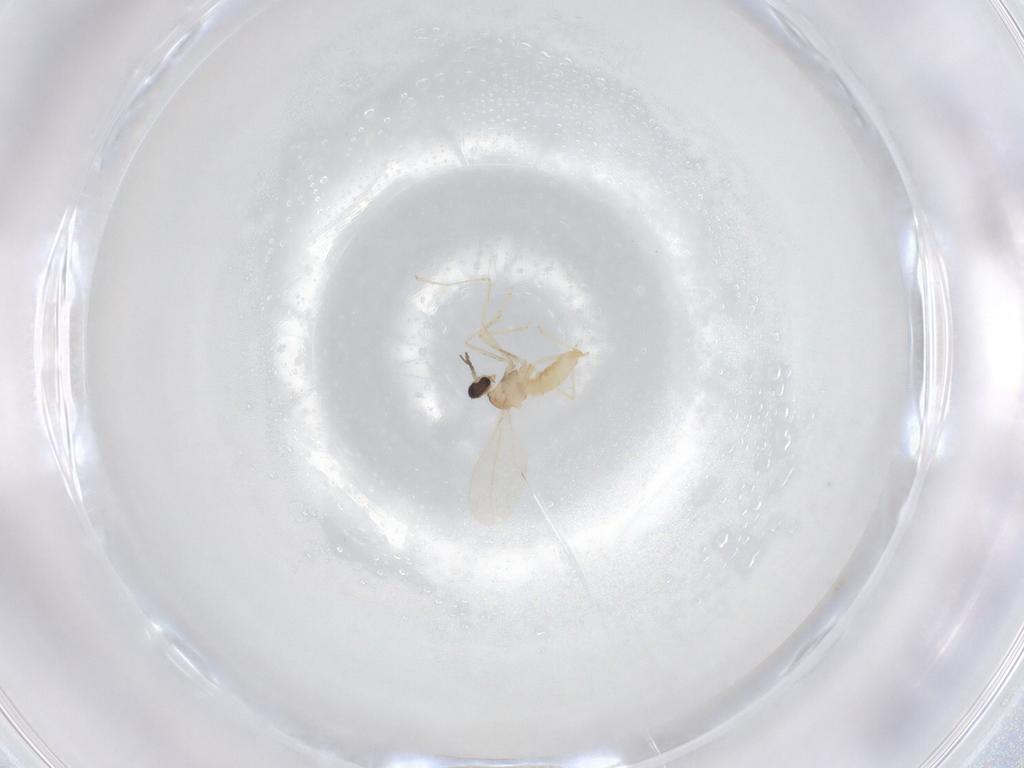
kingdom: Animalia
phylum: Arthropoda
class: Insecta
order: Diptera
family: Cecidomyiidae
